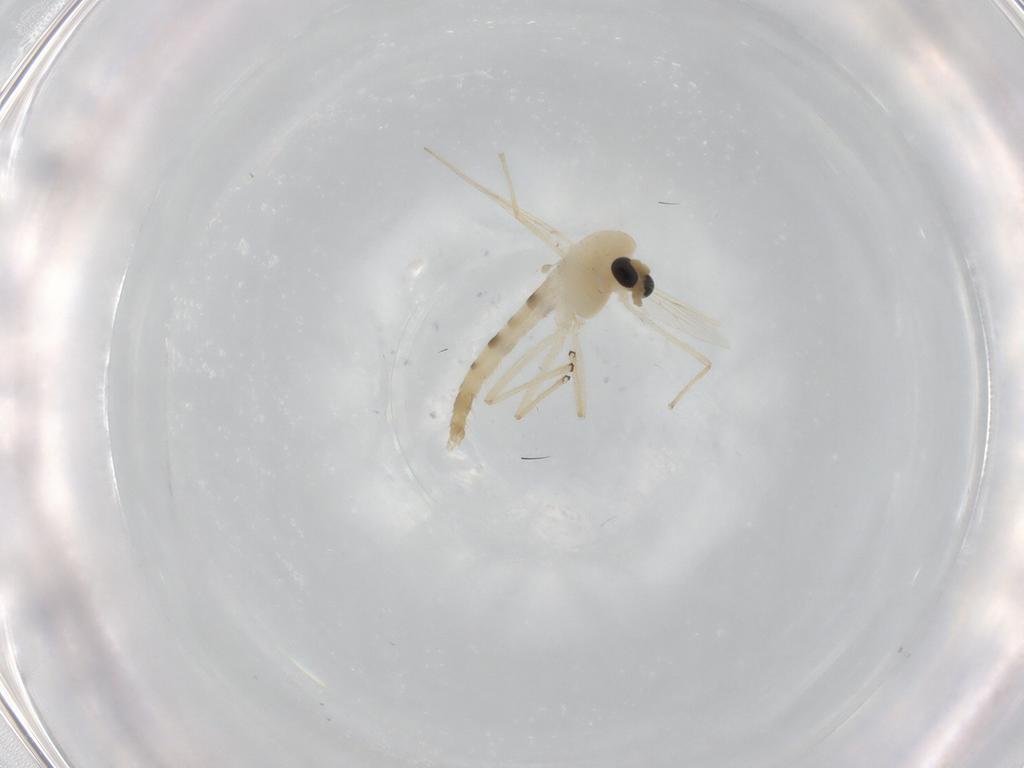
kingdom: Animalia
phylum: Arthropoda
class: Insecta
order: Diptera
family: Chironomidae
